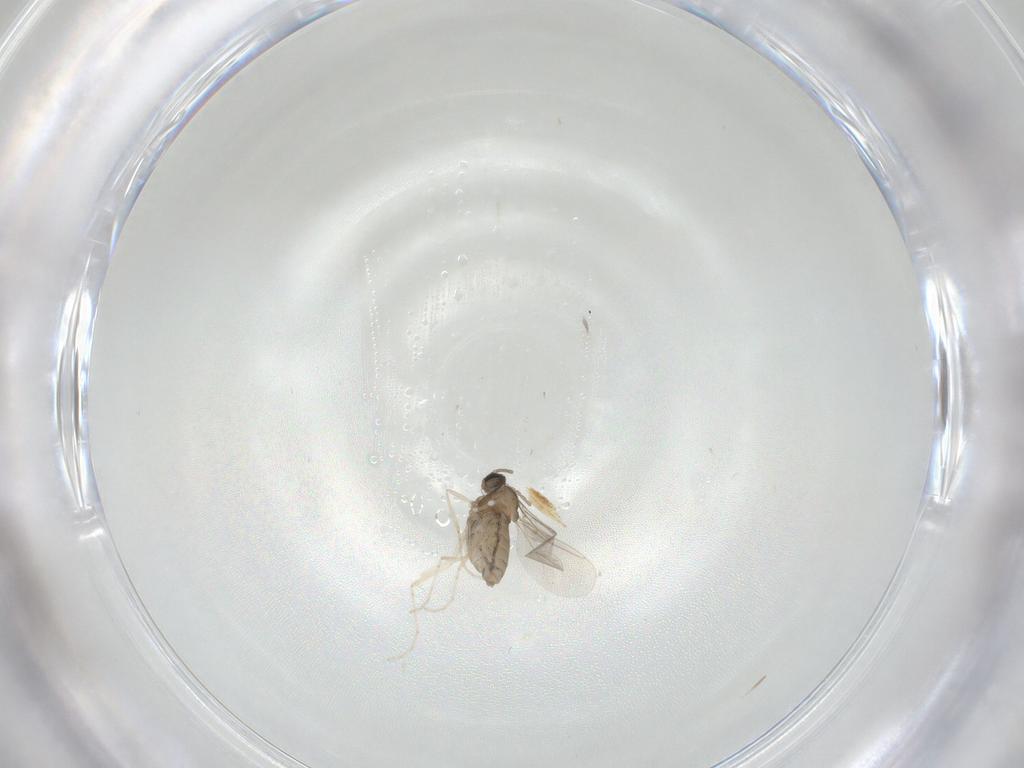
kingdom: Animalia
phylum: Arthropoda
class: Insecta
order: Diptera
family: Cecidomyiidae
